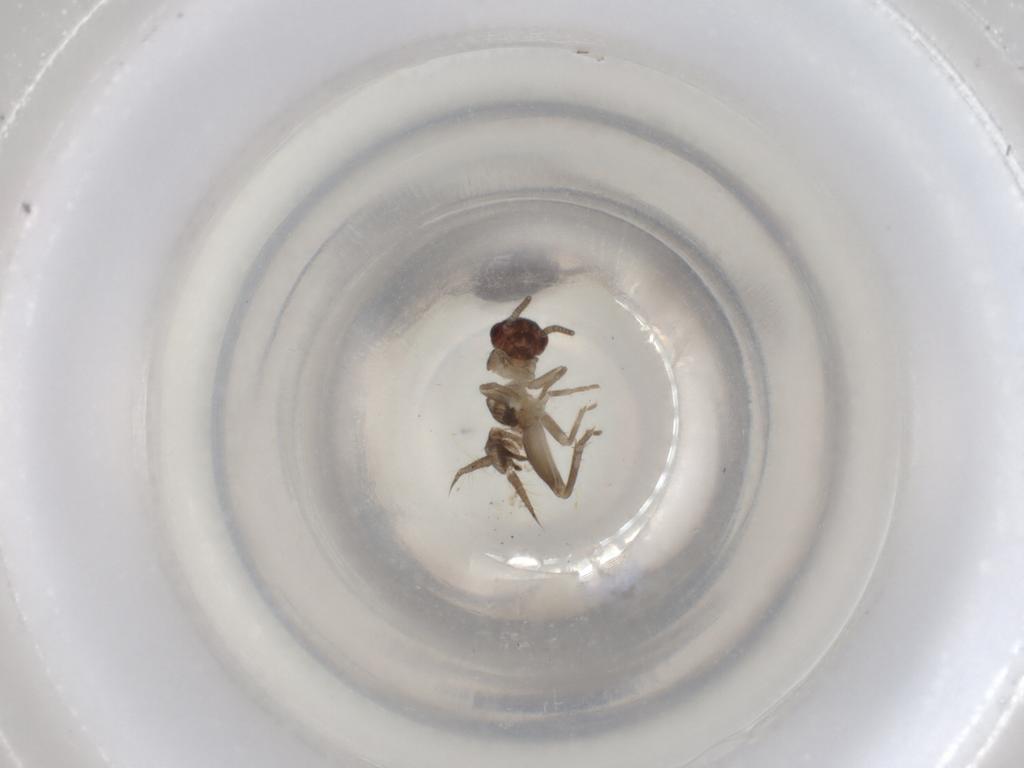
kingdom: Animalia
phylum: Arthropoda
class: Insecta
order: Orthoptera
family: Gryllidae
